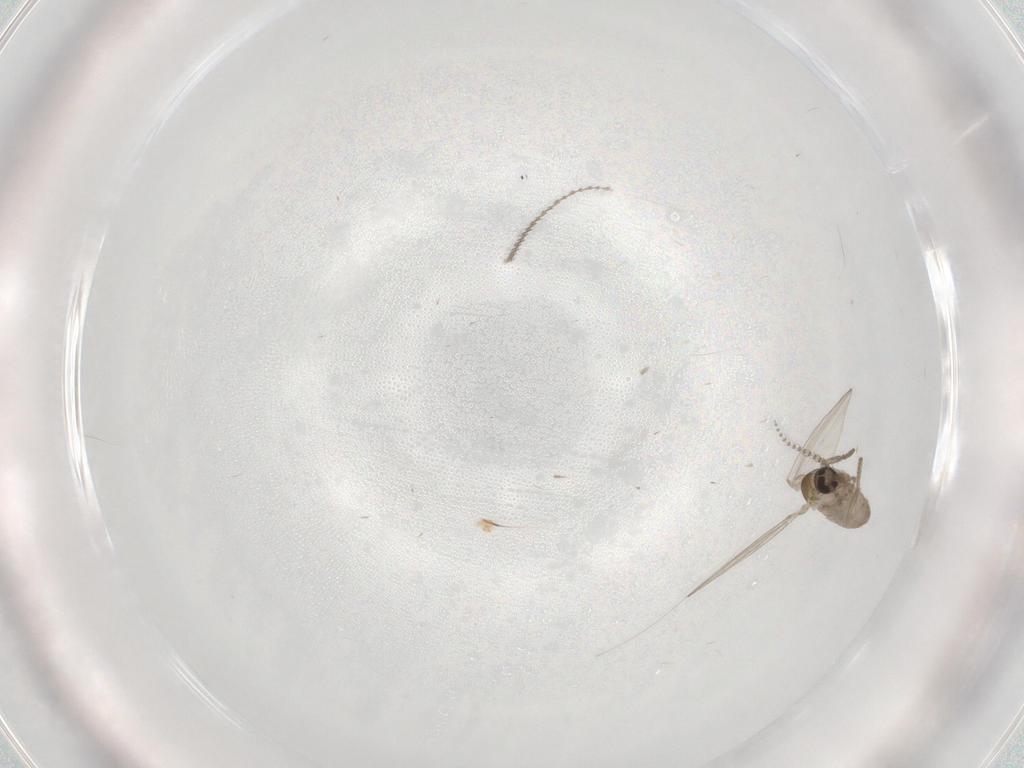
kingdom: Animalia
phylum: Arthropoda
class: Insecta
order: Diptera
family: Psychodidae
